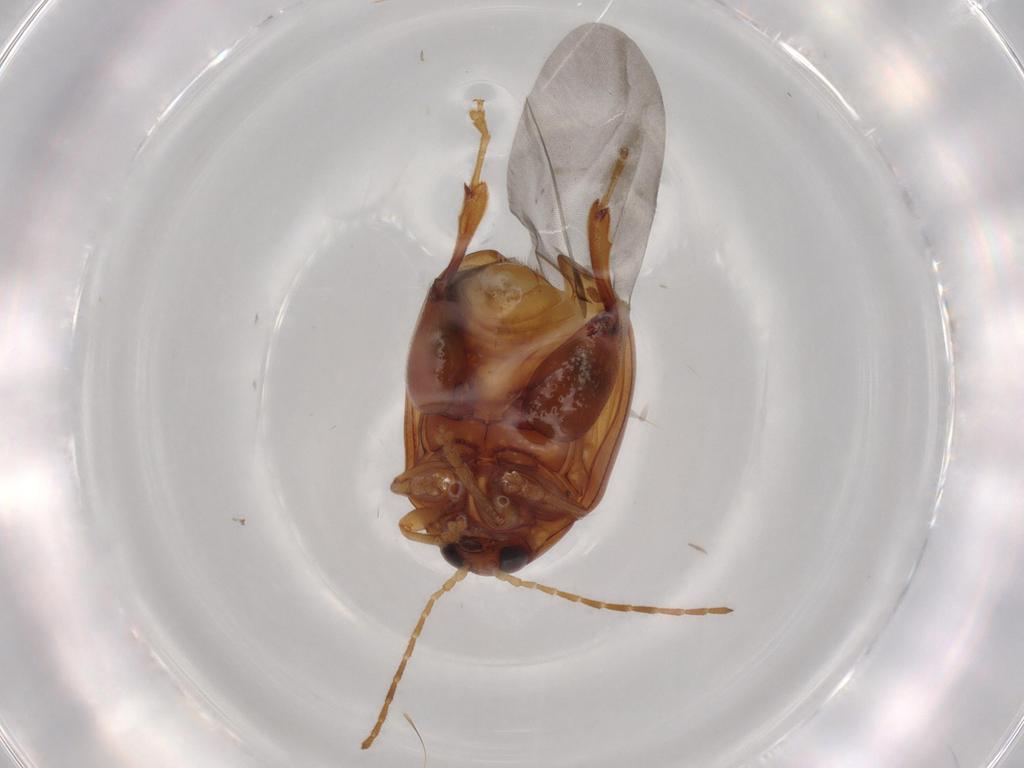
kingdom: Animalia
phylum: Arthropoda
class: Insecta
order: Coleoptera
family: Chrysomelidae
